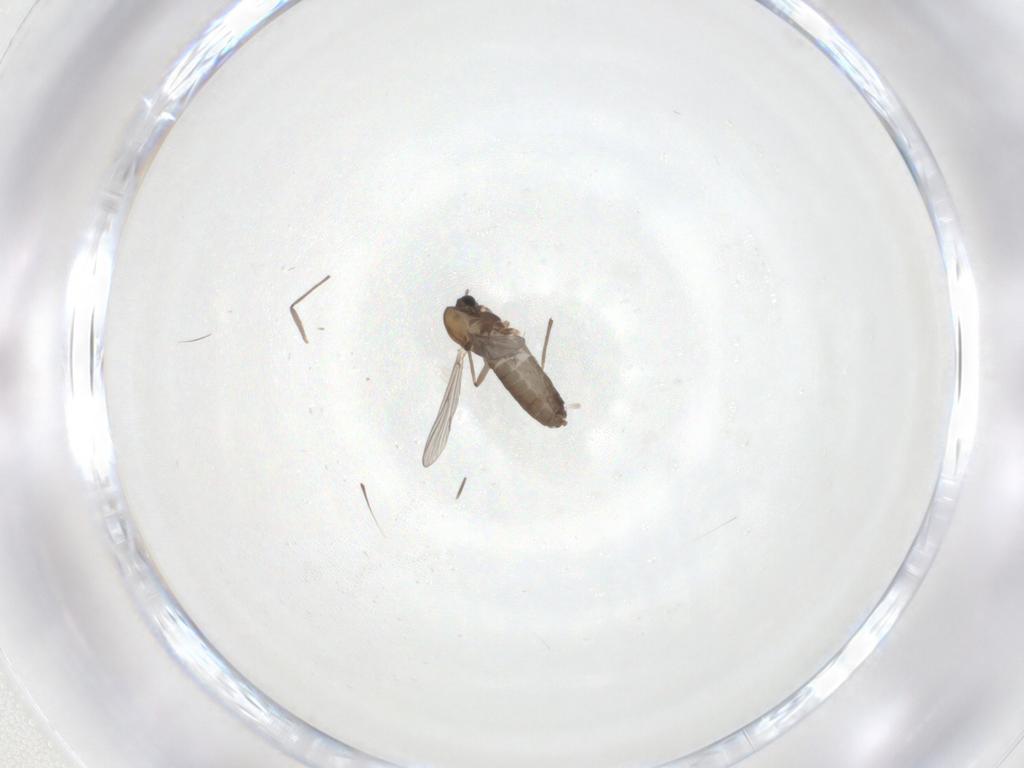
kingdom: Animalia
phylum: Arthropoda
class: Insecta
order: Diptera
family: Chironomidae
